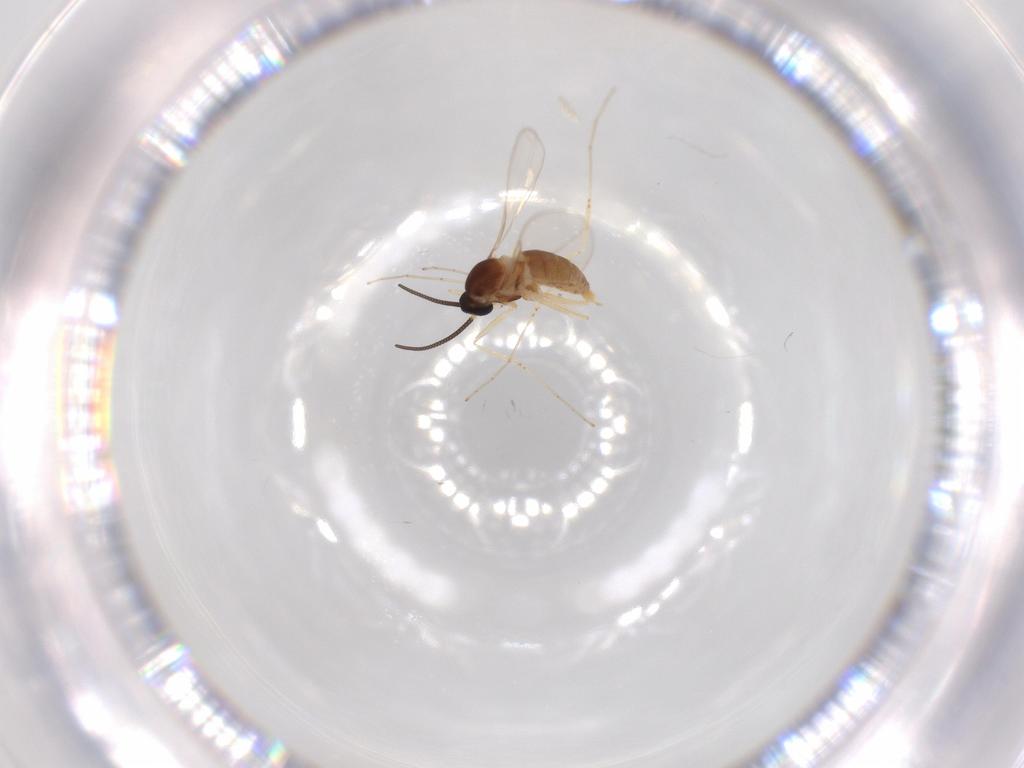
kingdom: Animalia
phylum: Arthropoda
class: Insecta
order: Diptera
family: Cecidomyiidae
